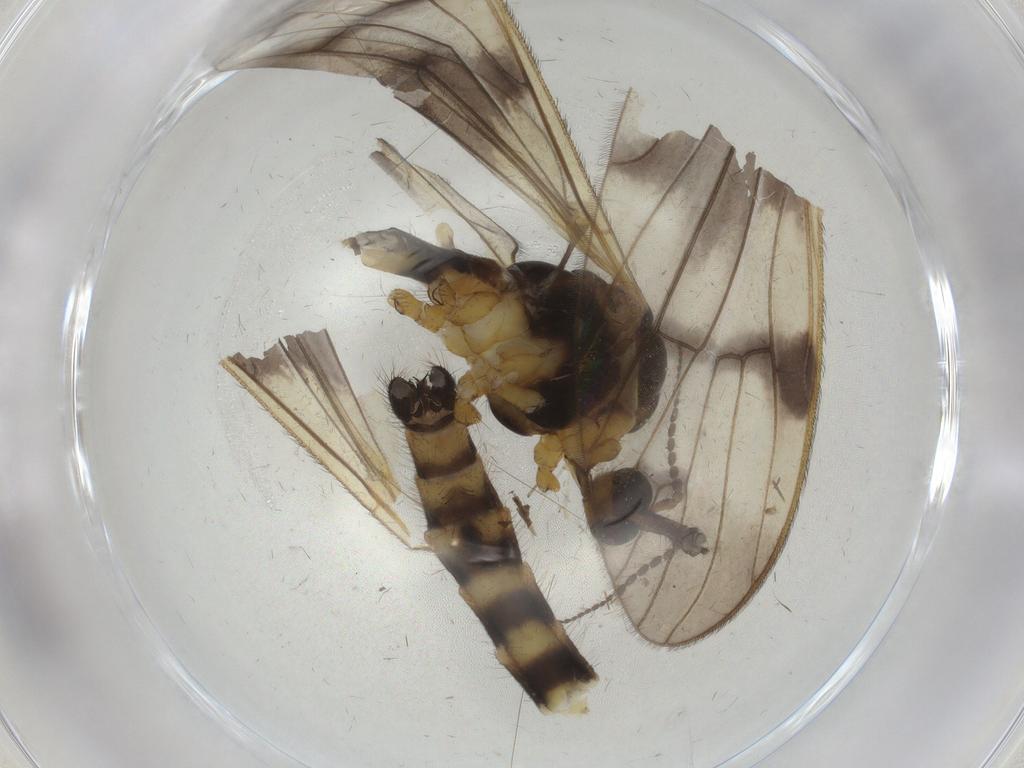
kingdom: Animalia
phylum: Arthropoda
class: Insecta
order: Diptera
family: Limoniidae
